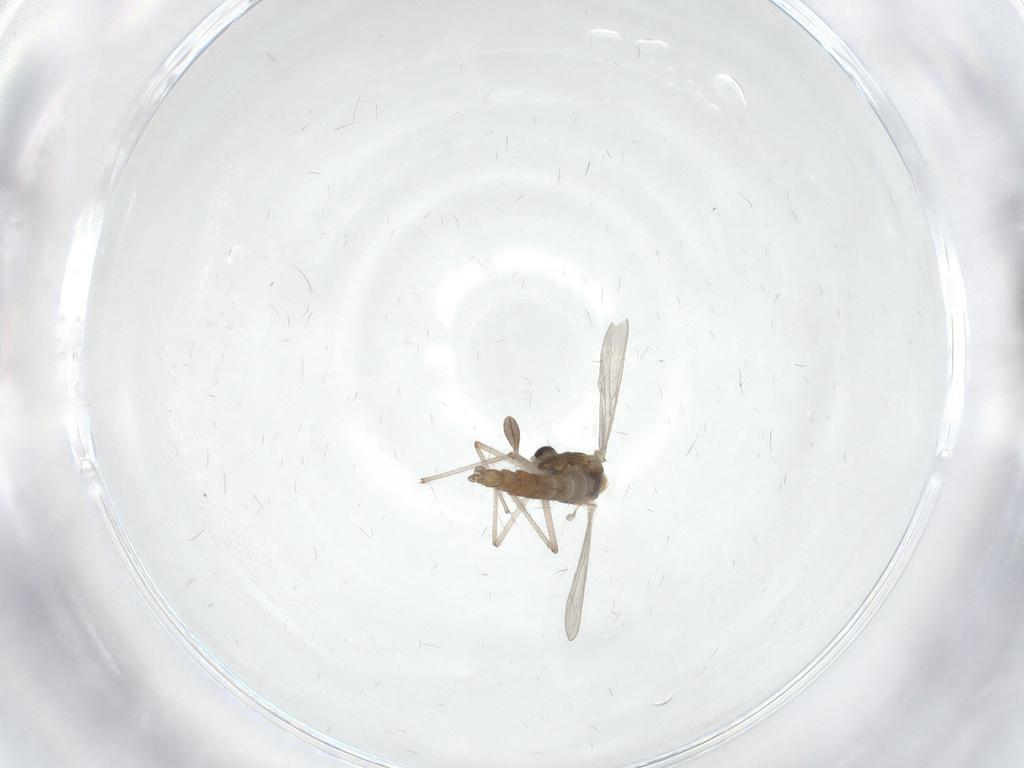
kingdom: Animalia
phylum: Arthropoda
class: Insecta
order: Diptera
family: Chironomidae
